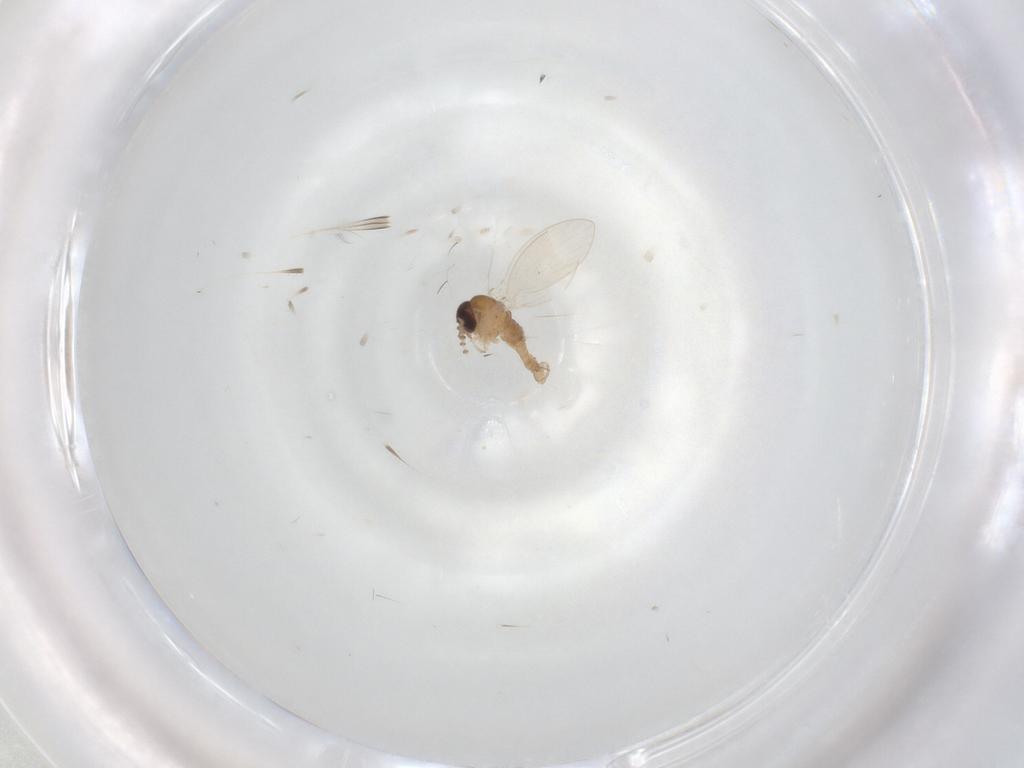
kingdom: Animalia
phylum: Arthropoda
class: Insecta
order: Diptera
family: Psychodidae
